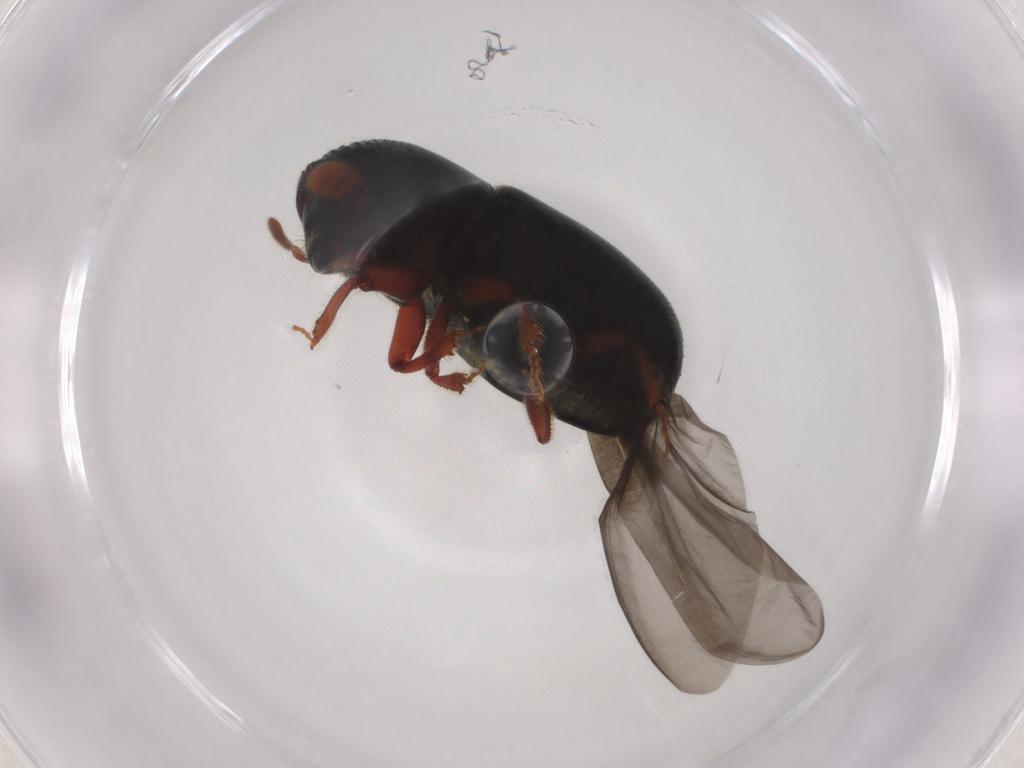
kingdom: Animalia
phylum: Arthropoda
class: Insecta
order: Coleoptera
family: Curculionidae
